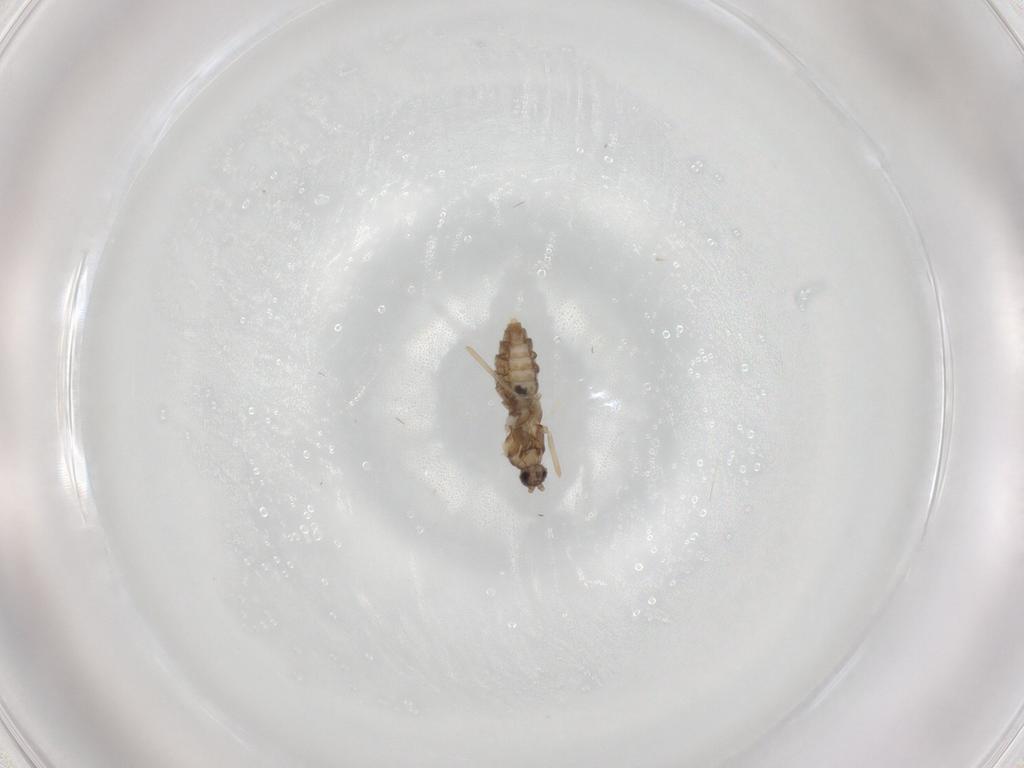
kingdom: Animalia
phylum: Arthropoda
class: Insecta
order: Diptera
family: Cecidomyiidae
